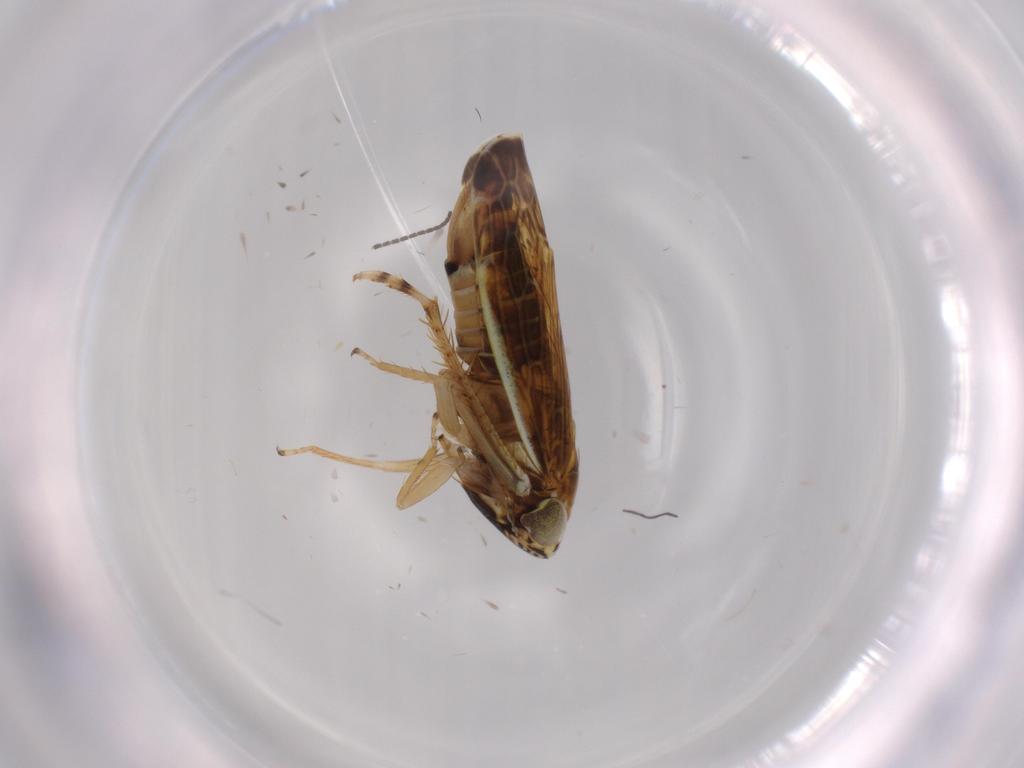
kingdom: Animalia
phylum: Arthropoda
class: Insecta
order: Hemiptera
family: Cicadellidae
